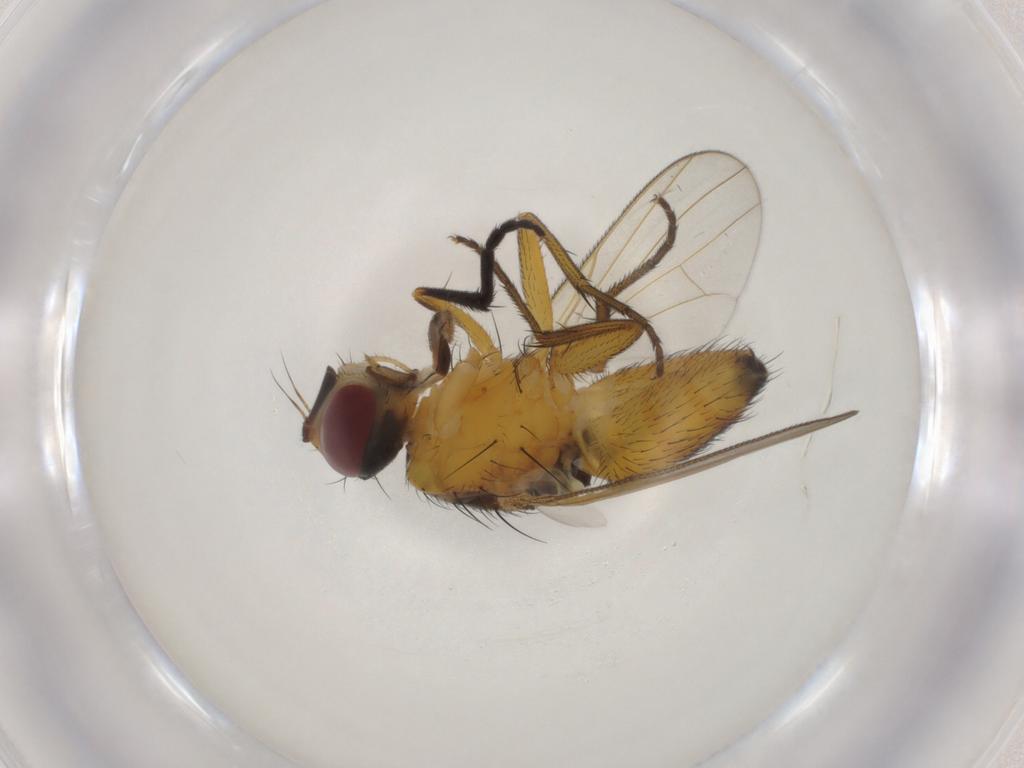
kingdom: Animalia
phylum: Arthropoda
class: Insecta
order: Diptera
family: Muscidae
